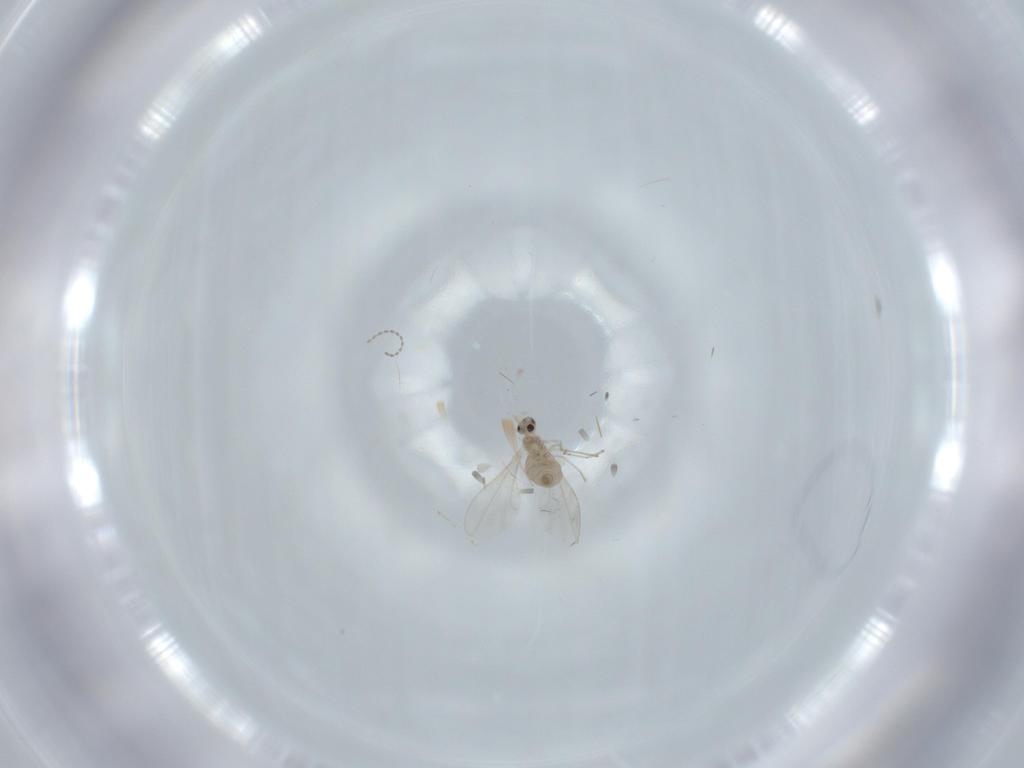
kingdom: Animalia
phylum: Arthropoda
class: Insecta
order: Diptera
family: Cecidomyiidae
